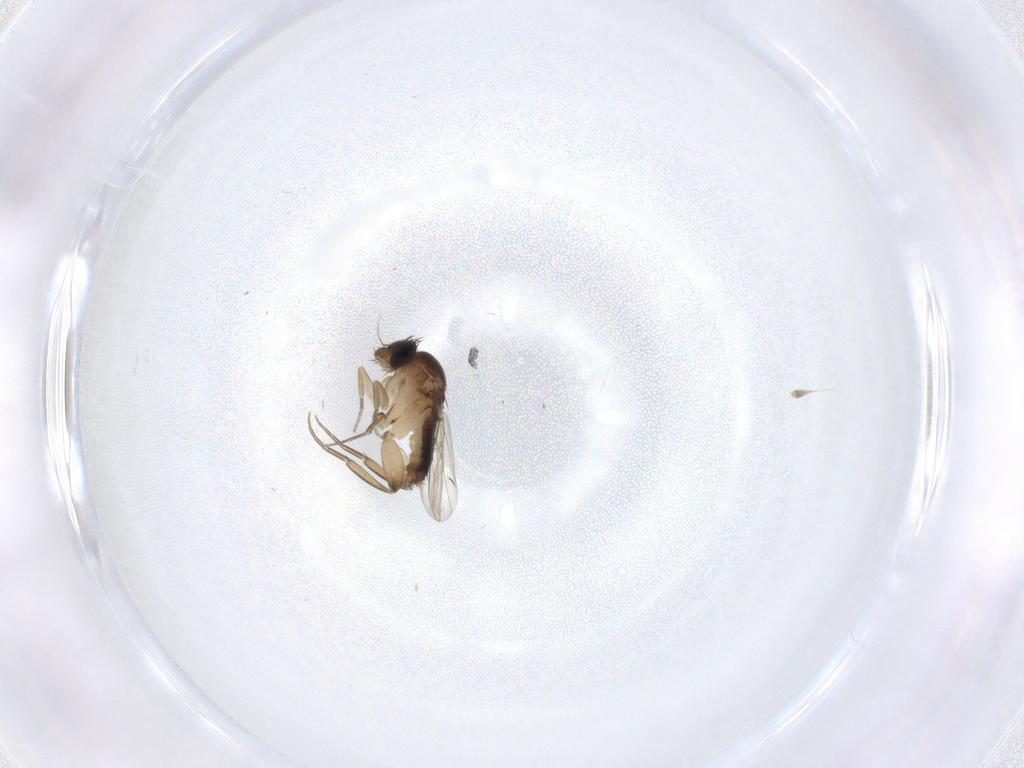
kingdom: Animalia
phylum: Arthropoda
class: Insecta
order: Diptera
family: Phoridae
